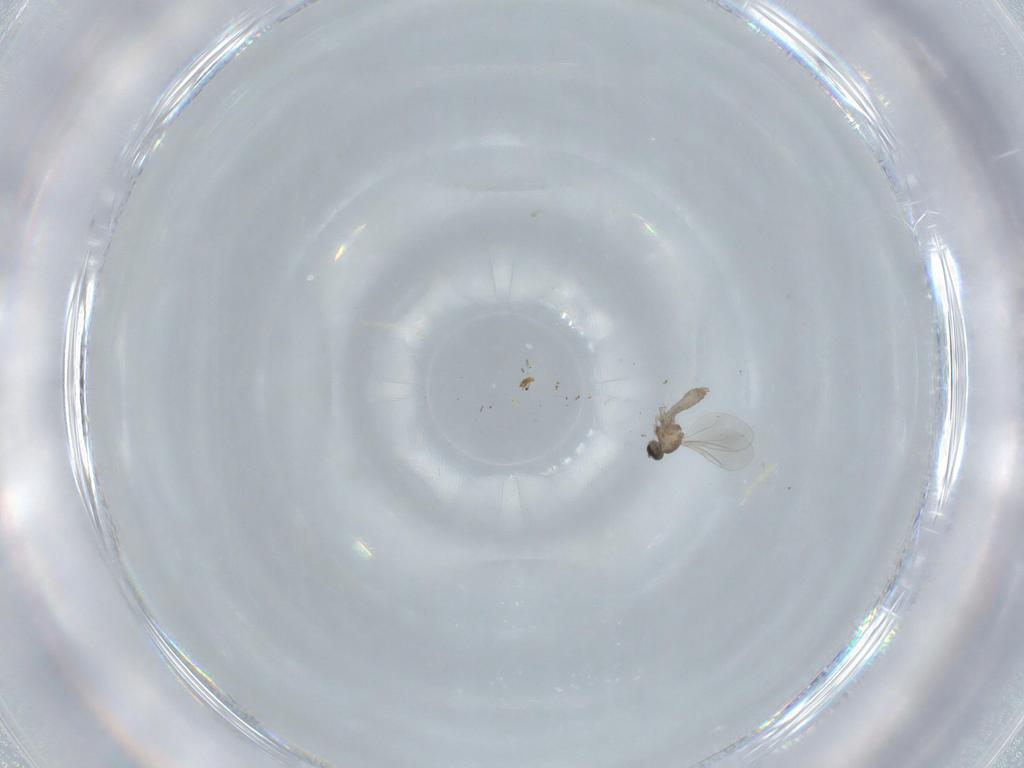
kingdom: Animalia
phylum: Arthropoda
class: Insecta
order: Diptera
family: Cecidomyiidae
